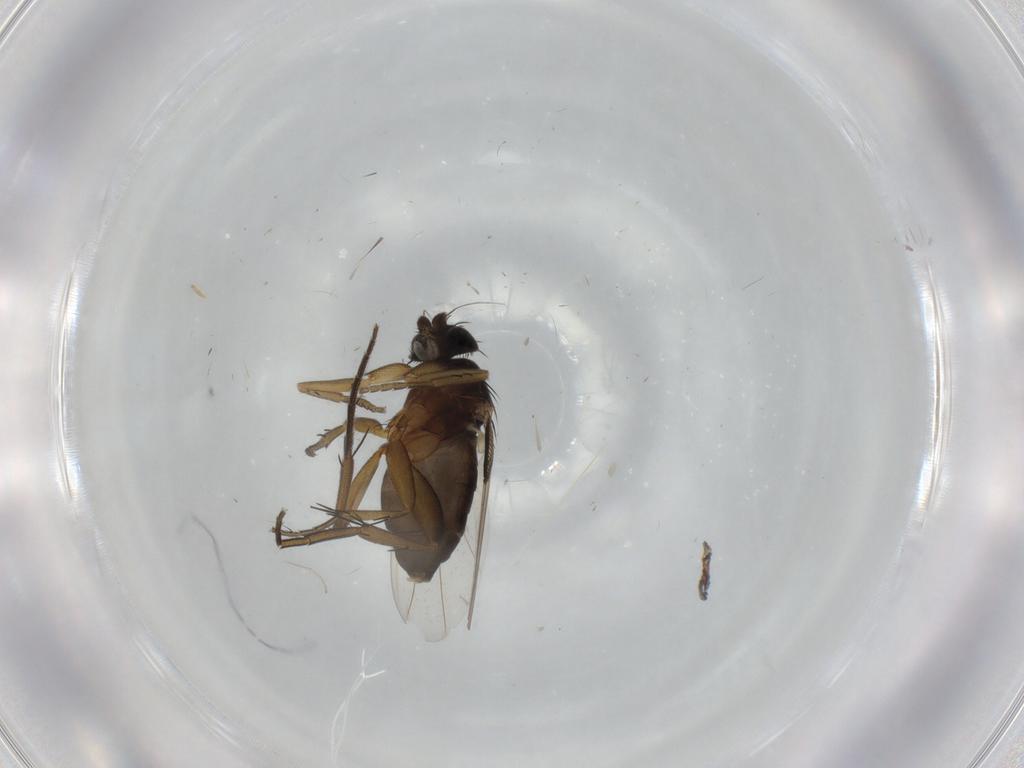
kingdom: Animalia
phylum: Arthropoda
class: Insecta
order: Diptera
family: Phoridae
